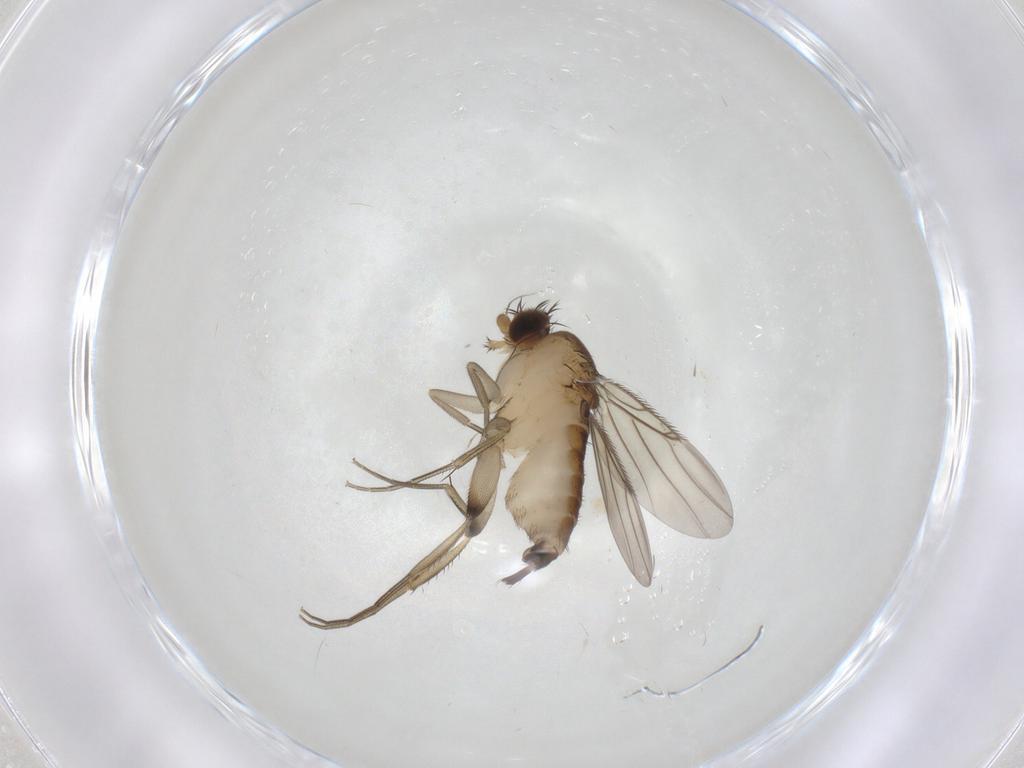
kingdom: Animalia
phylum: Arthropoda
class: Insecta
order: Diptera
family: Phoridae
